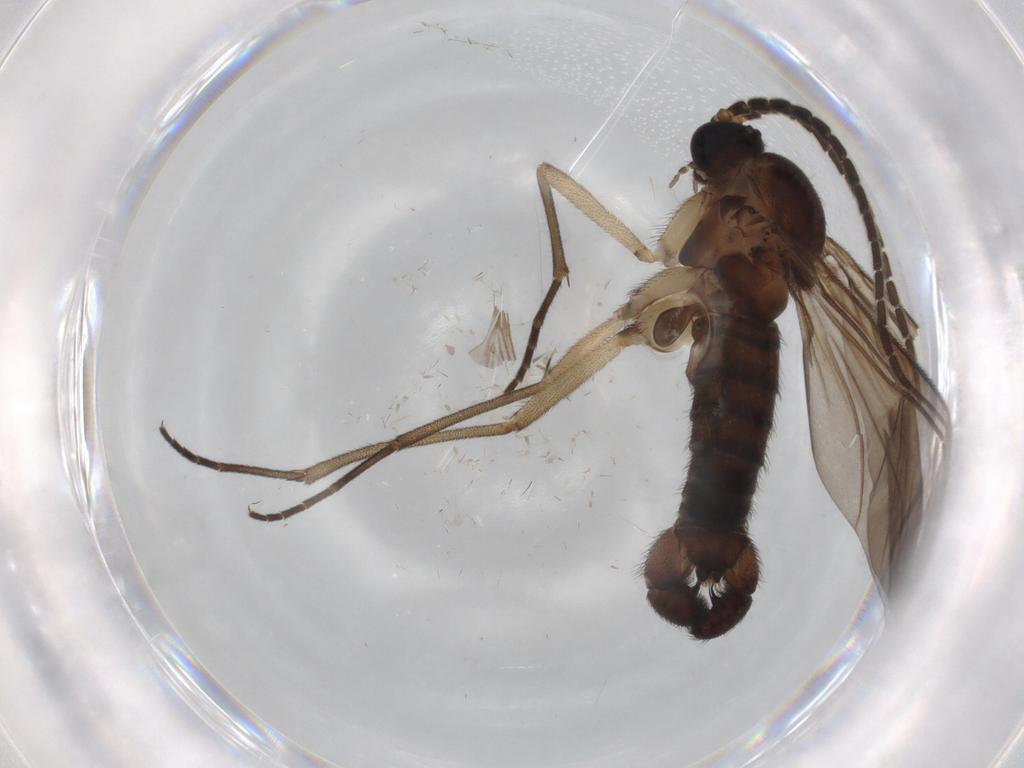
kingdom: Animalia
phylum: Arthropoda
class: Insecta
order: Diptera
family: Phoridae
